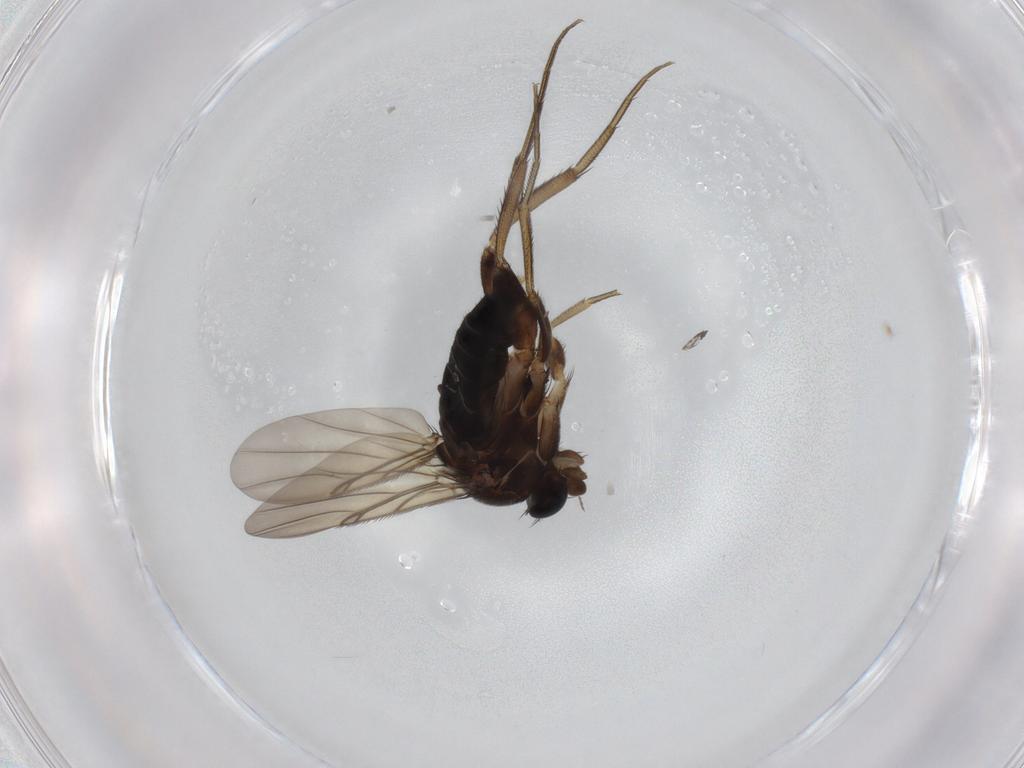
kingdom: Animalia
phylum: Arthropoda
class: Insecta
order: Diptera
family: Phoridae
